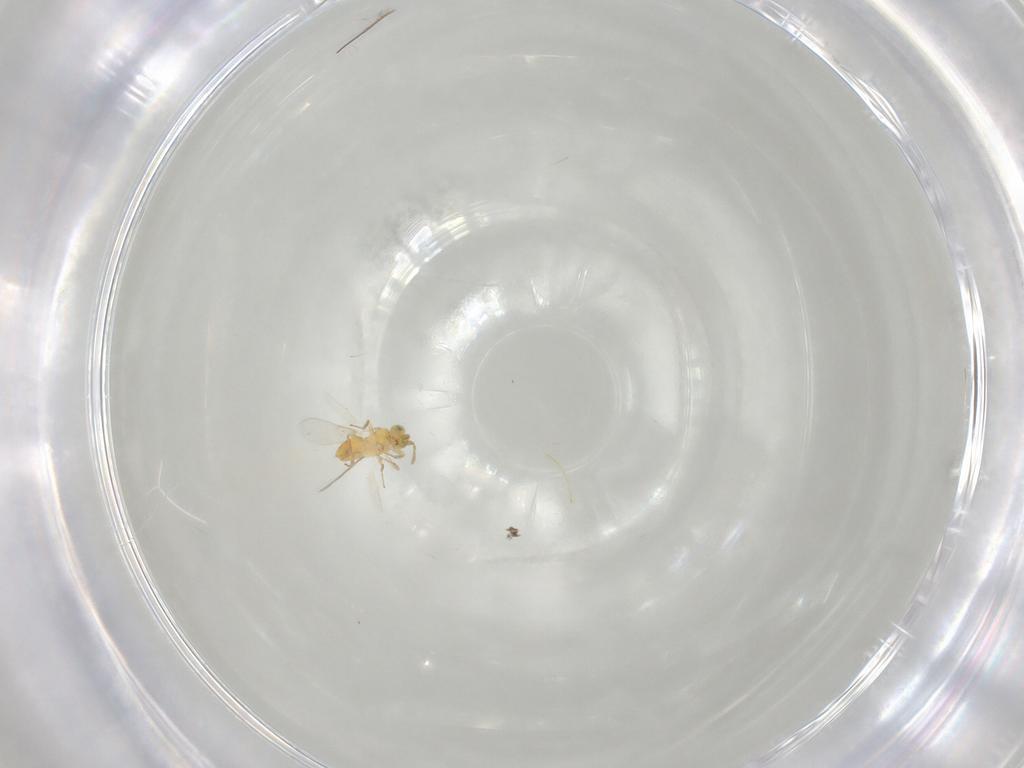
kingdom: Animalia
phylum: Arthropoda
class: Insecta
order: Hymenoptera
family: Aphelinidae
